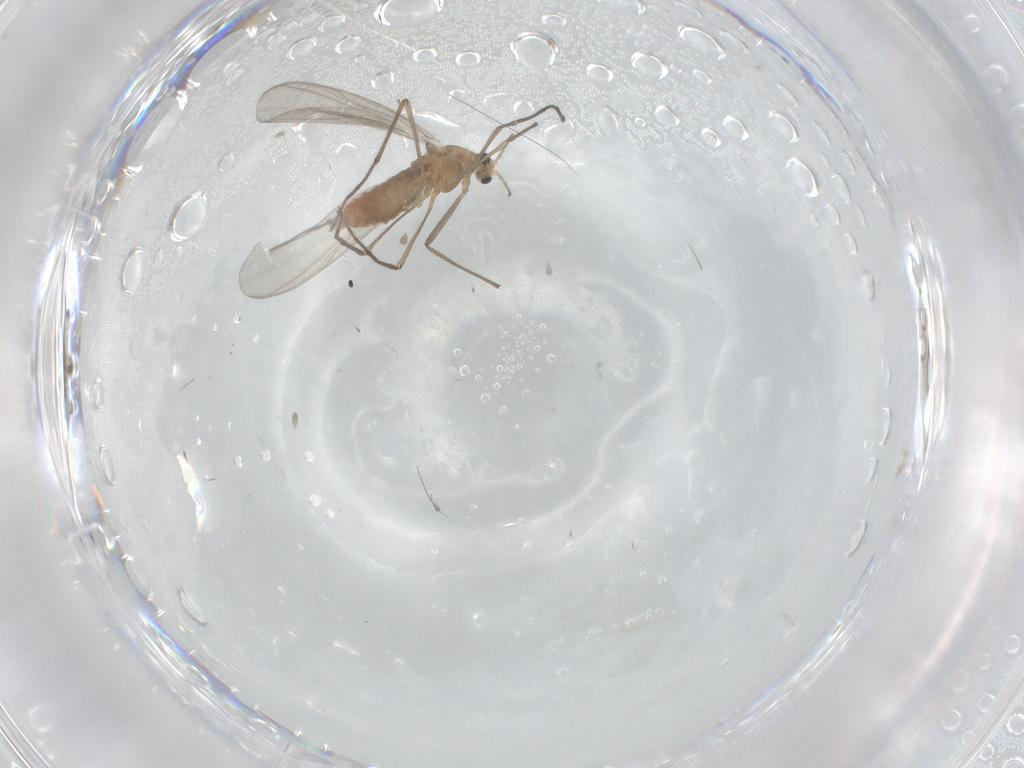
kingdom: Animalia
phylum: Arthropoda
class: Insecta
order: Diptera
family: Chironomidae
